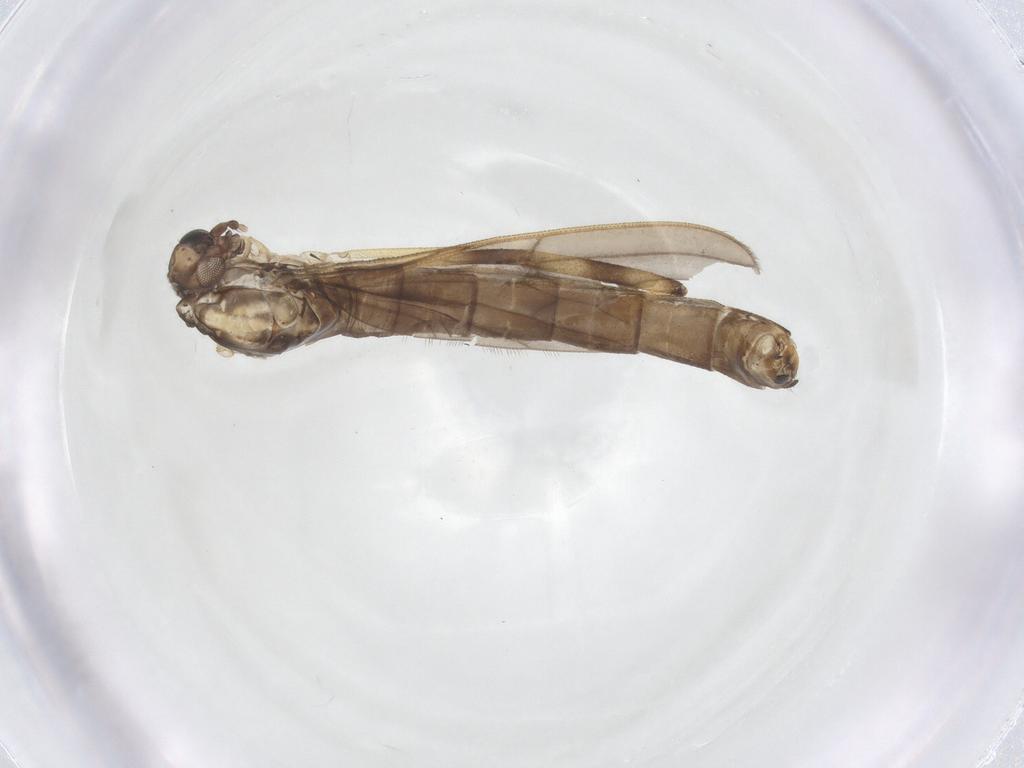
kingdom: Animalia
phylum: Arthropoda
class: Insecta
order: Diptera
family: Limoniidae
